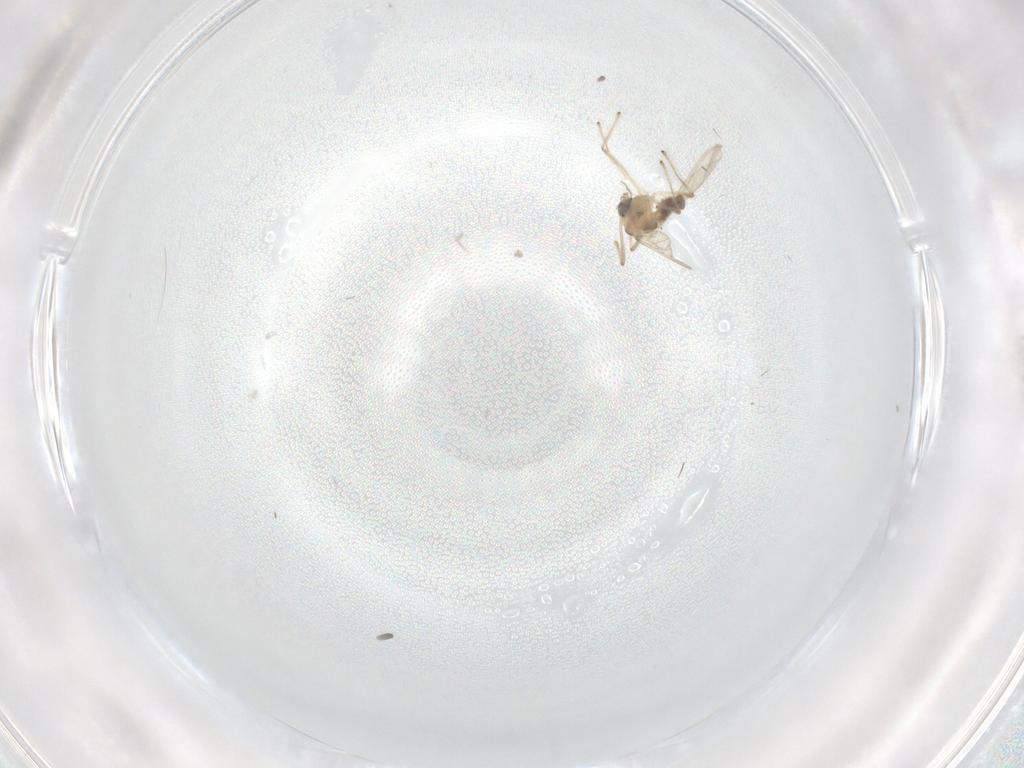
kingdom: Animalia
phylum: Arthropoda
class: Insecta
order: Diptera
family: Chironomidae
